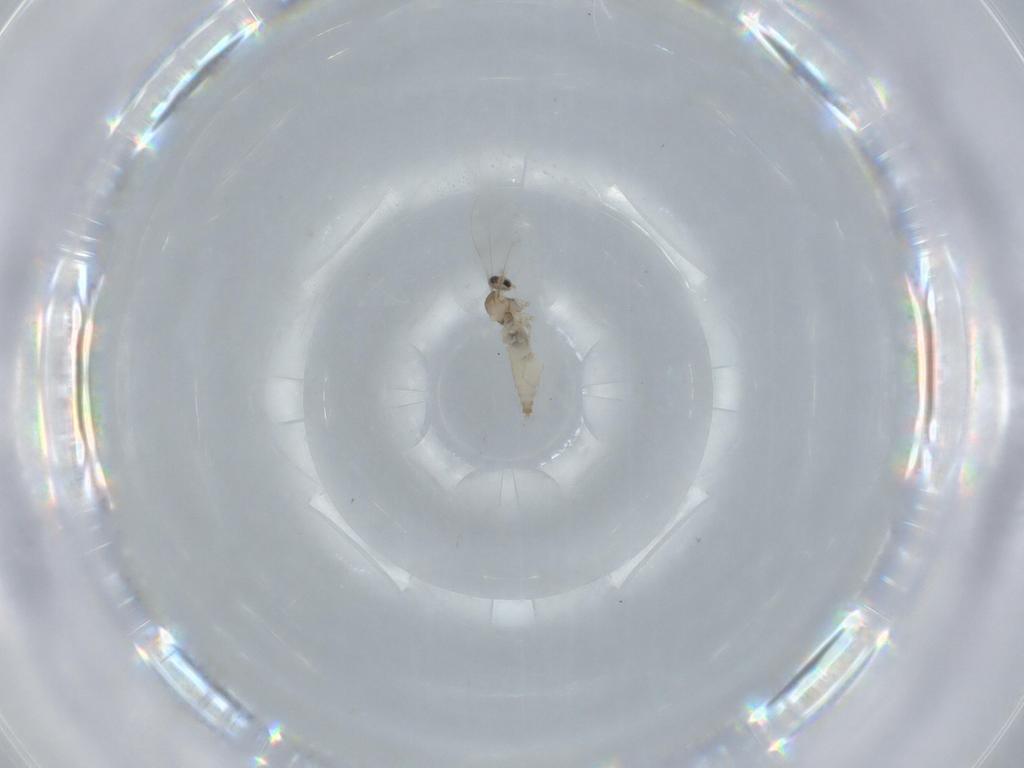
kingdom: Animalia
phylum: Arthropoda
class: Insecta
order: Diptera
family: Cecidomyiidae
